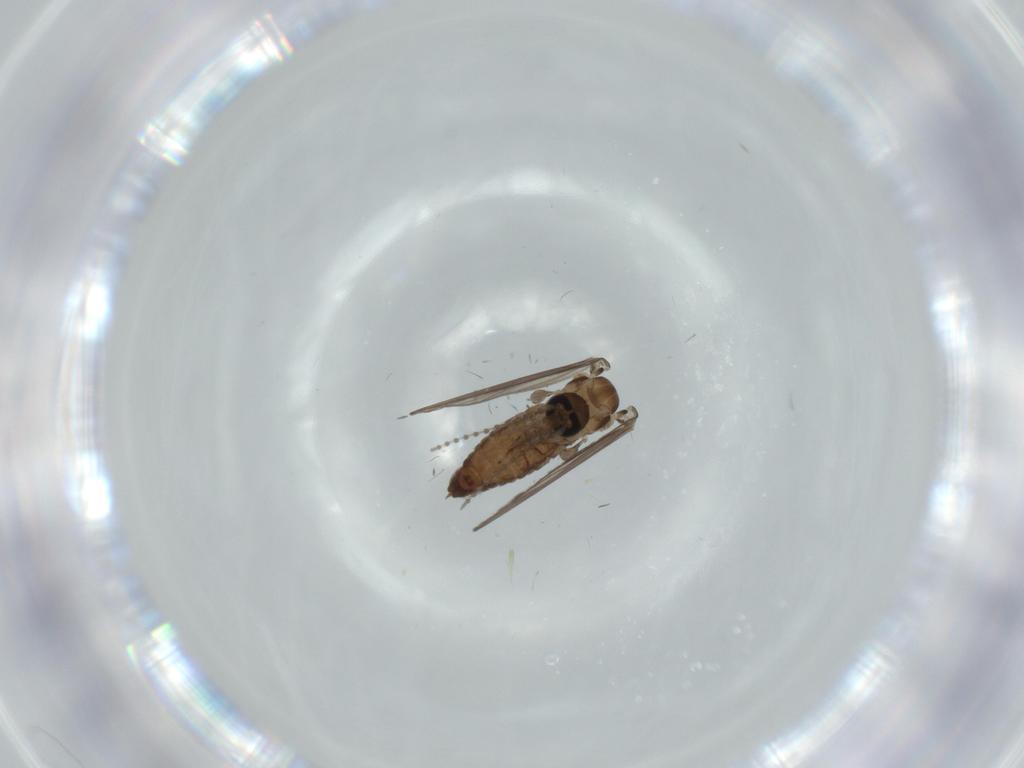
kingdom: Animalia
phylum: Arthropoda
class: Insecta
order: Diptera
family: Psychodidae
